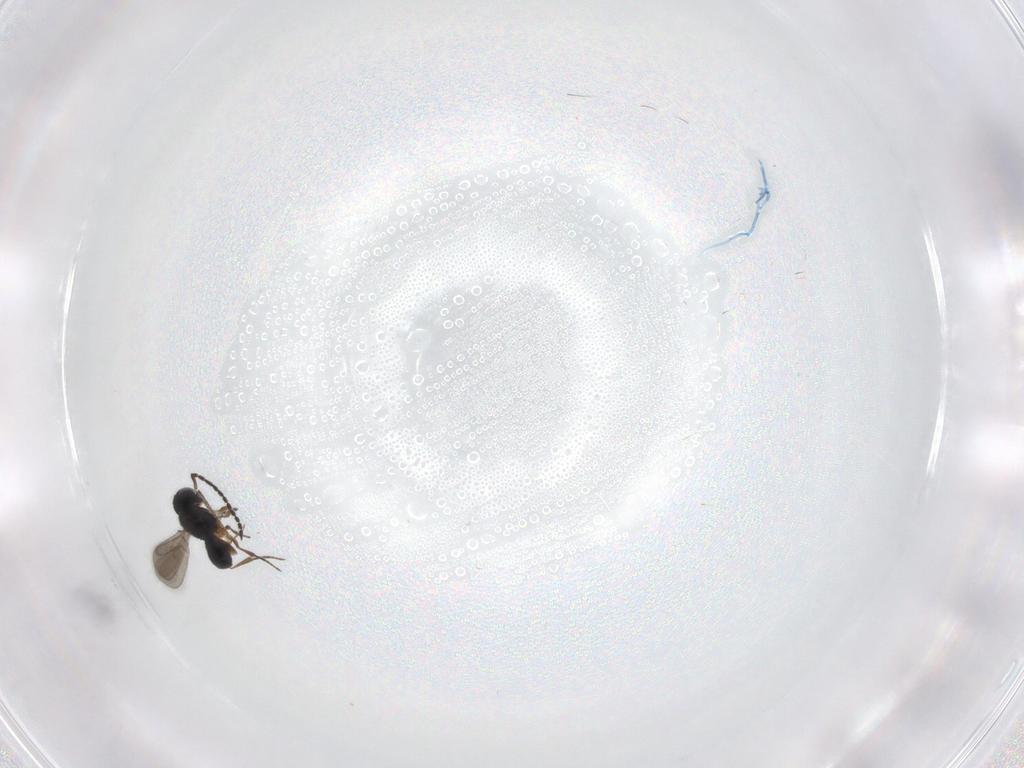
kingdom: Animalia
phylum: Arthropoda
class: Insecta
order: Hymenoptera
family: Scelionidae
